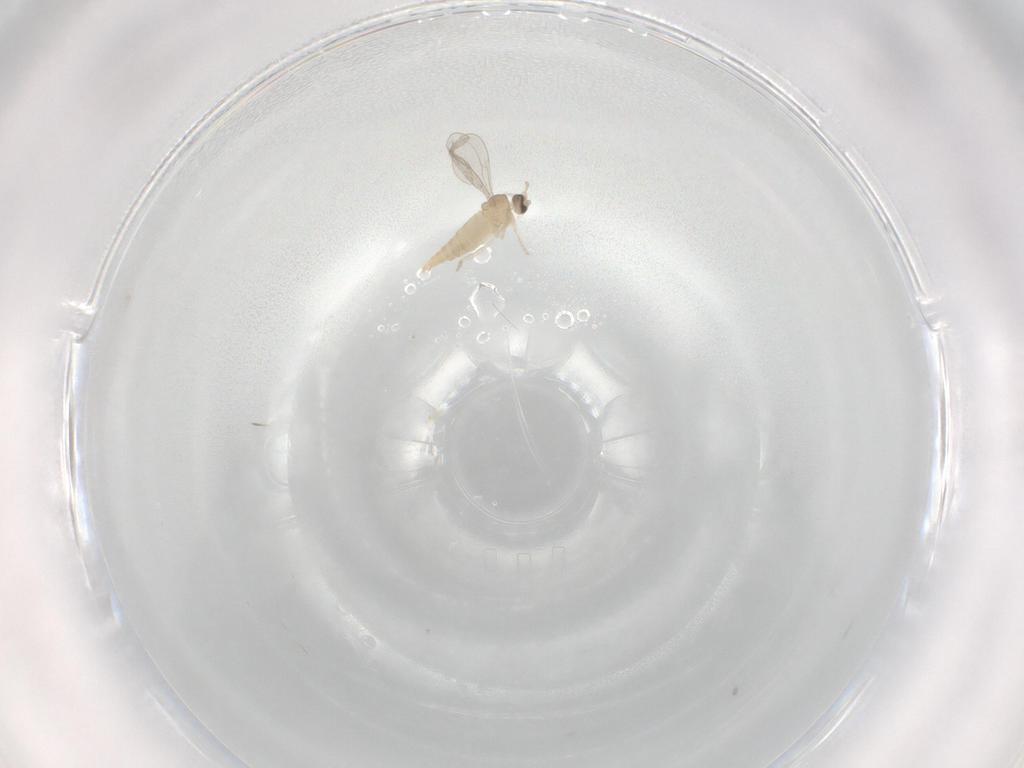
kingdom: Animalia
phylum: Arthropoda
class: Insecta
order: Diptera
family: Cecidomyiidae
